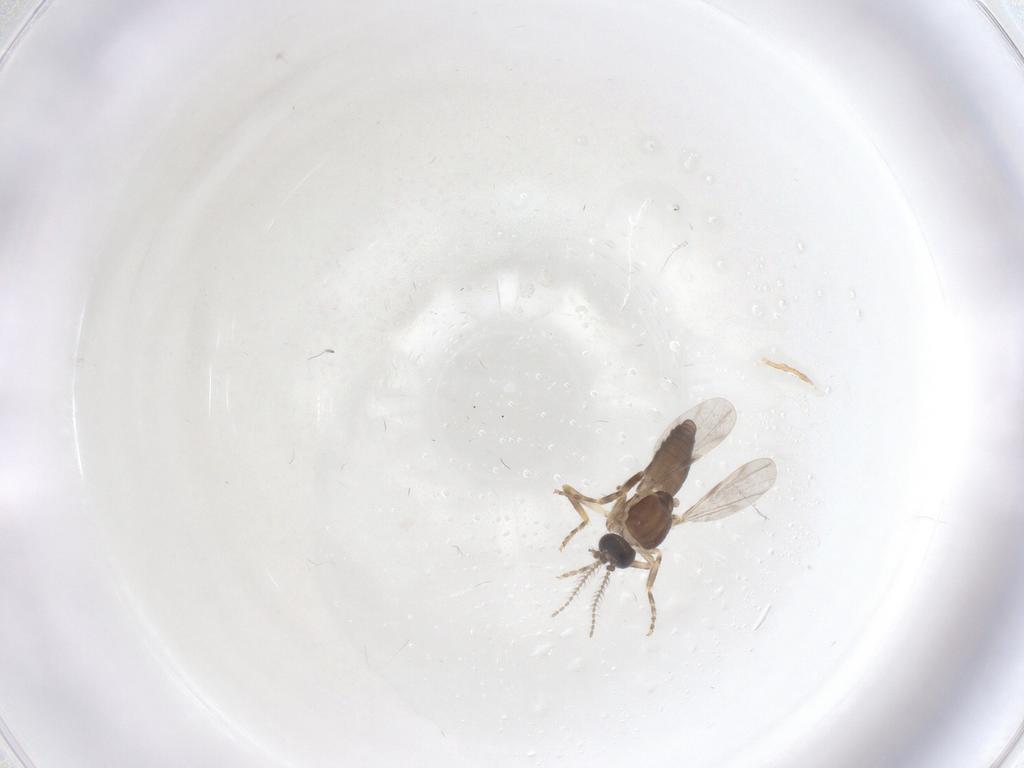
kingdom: Animalia
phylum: Arthropoda
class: Insecta
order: Diptera
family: Ceratopogonidae
